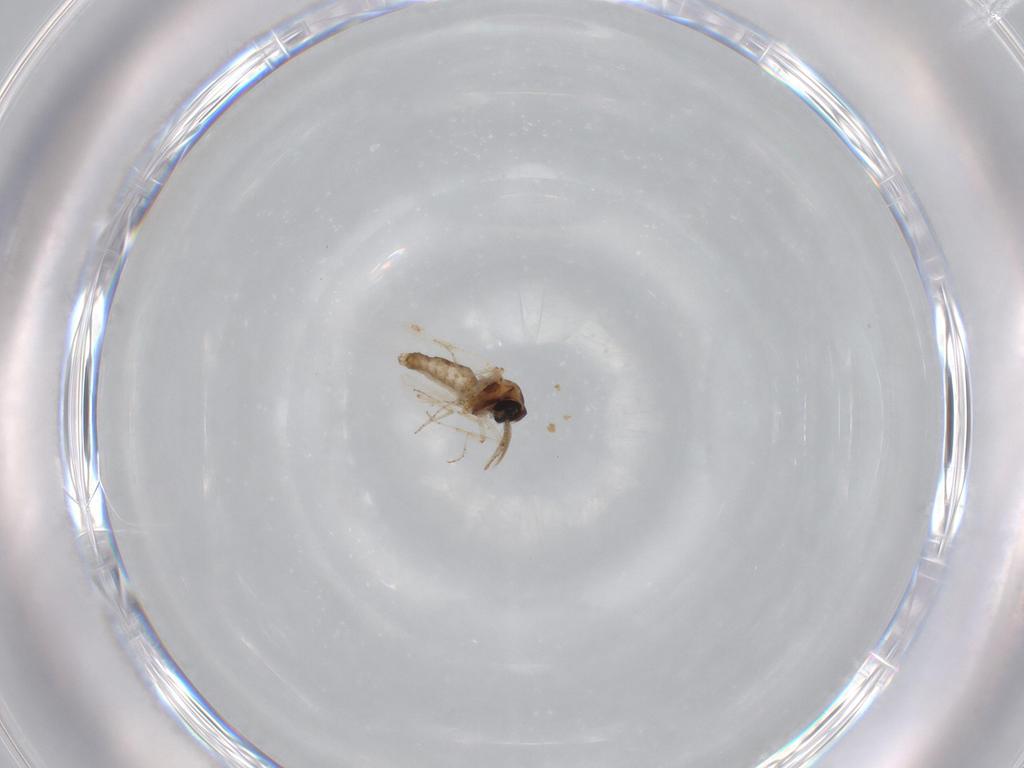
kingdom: Animalia
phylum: Arthropoda
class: Insecta
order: Diptera
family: Ceratopogonidae
